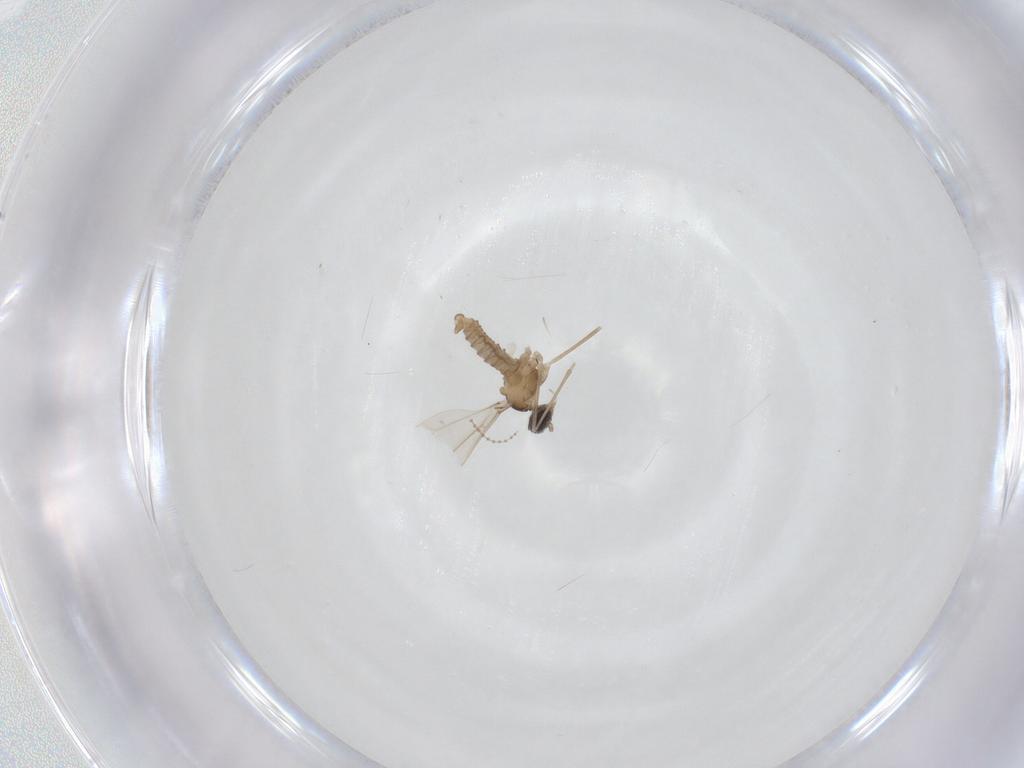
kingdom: Animalia
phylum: Arthropoda
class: Insecta
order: Diptera
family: Cecidomyiidae
